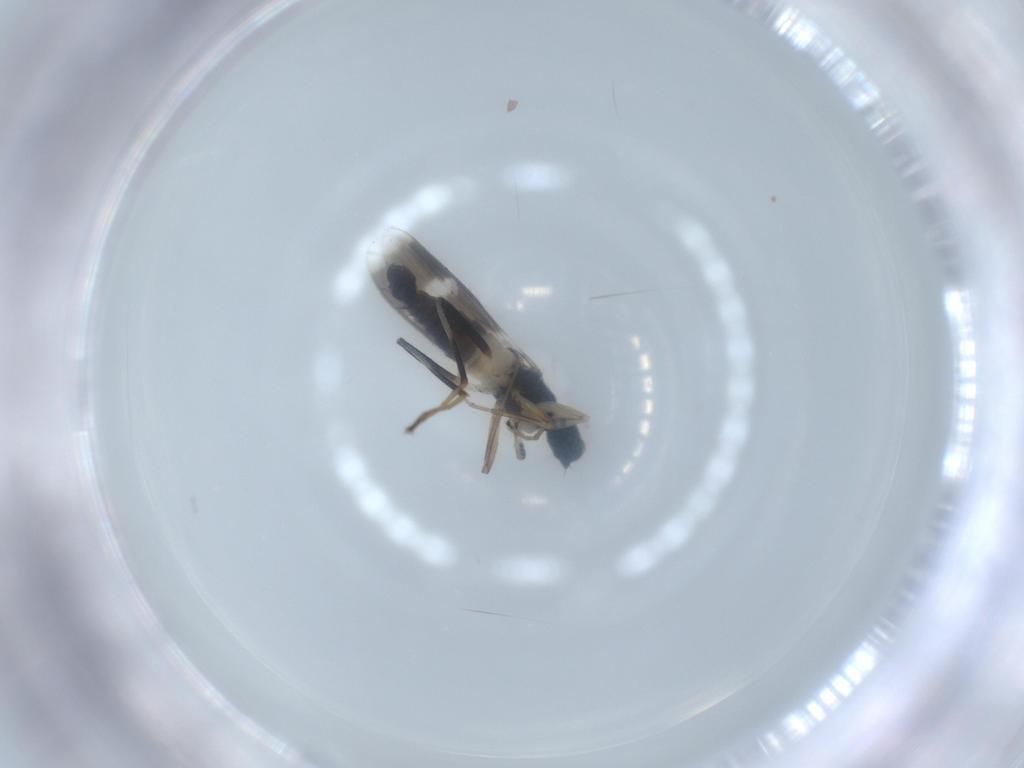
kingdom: Animalia
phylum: Arthropoda
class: Insecta
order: Diptera
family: Hybotidae
